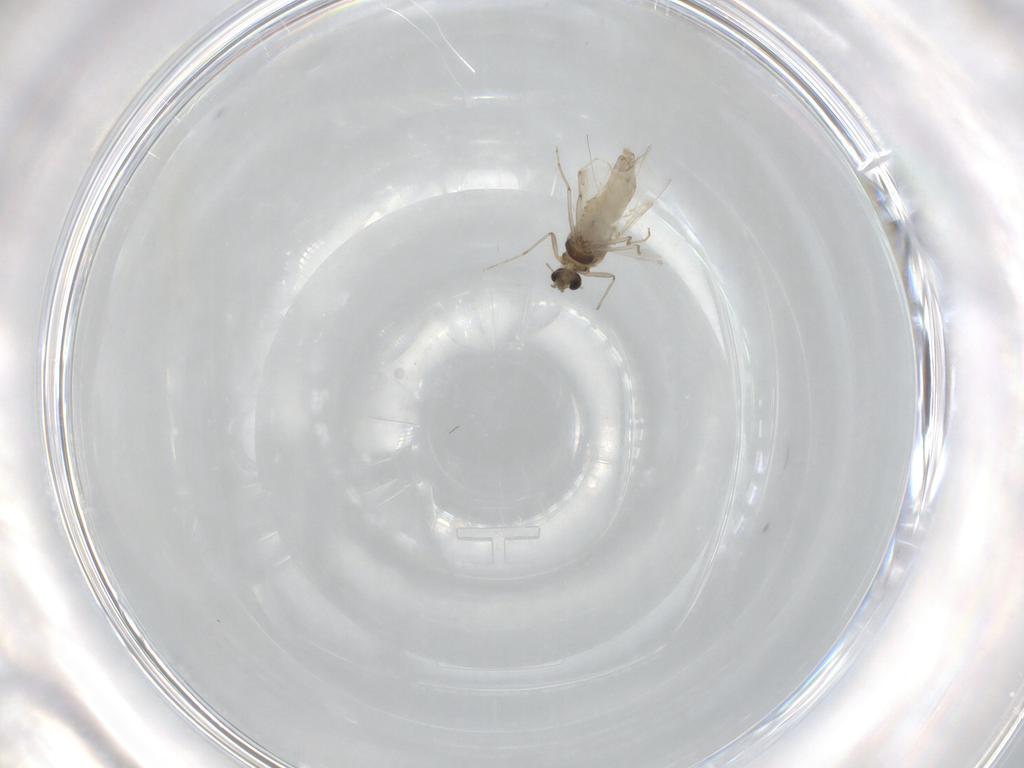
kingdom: Animalia
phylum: Arthropoda
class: Insecta
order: Diptera
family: Chironomidae
